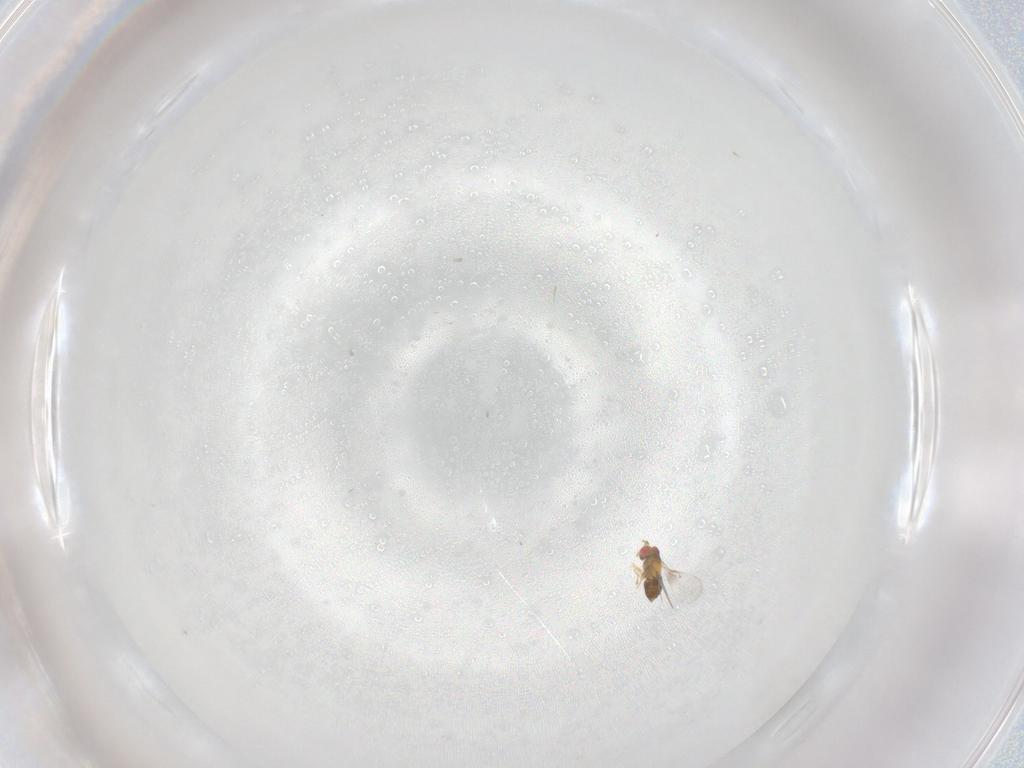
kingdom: Animalia
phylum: Arthropoda
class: Insecta
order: Hymenoptera
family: Trichogrammatidae
